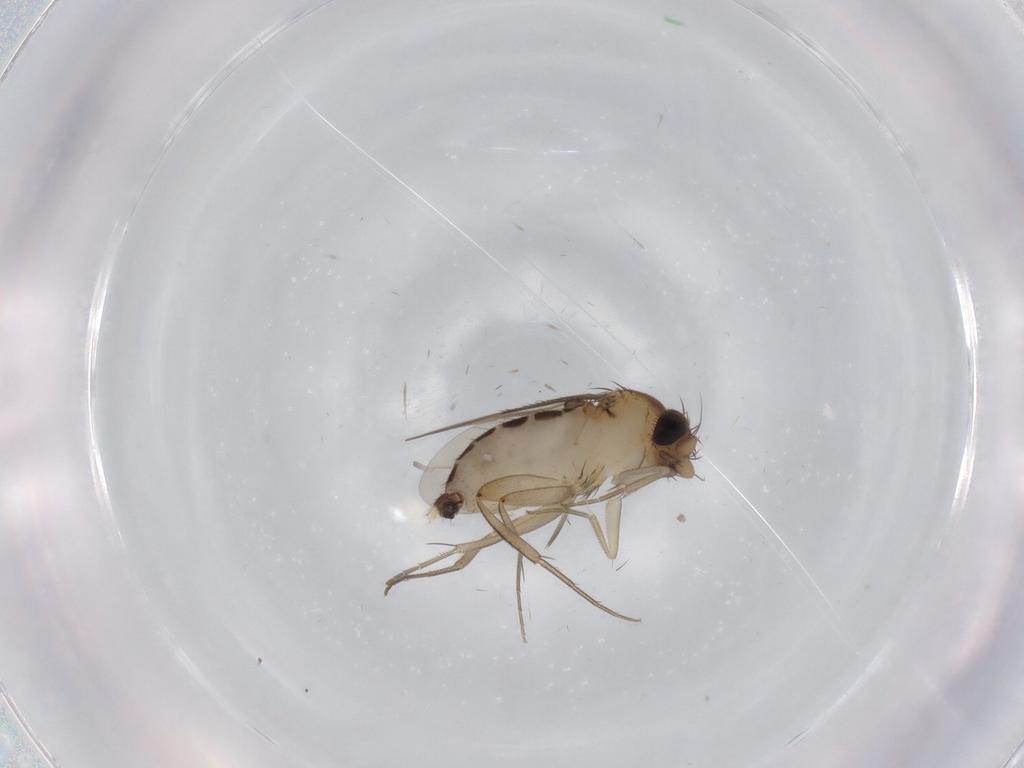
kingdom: Animalia
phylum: Arthropoda
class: Insecta
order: Diptera
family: Phoridae
